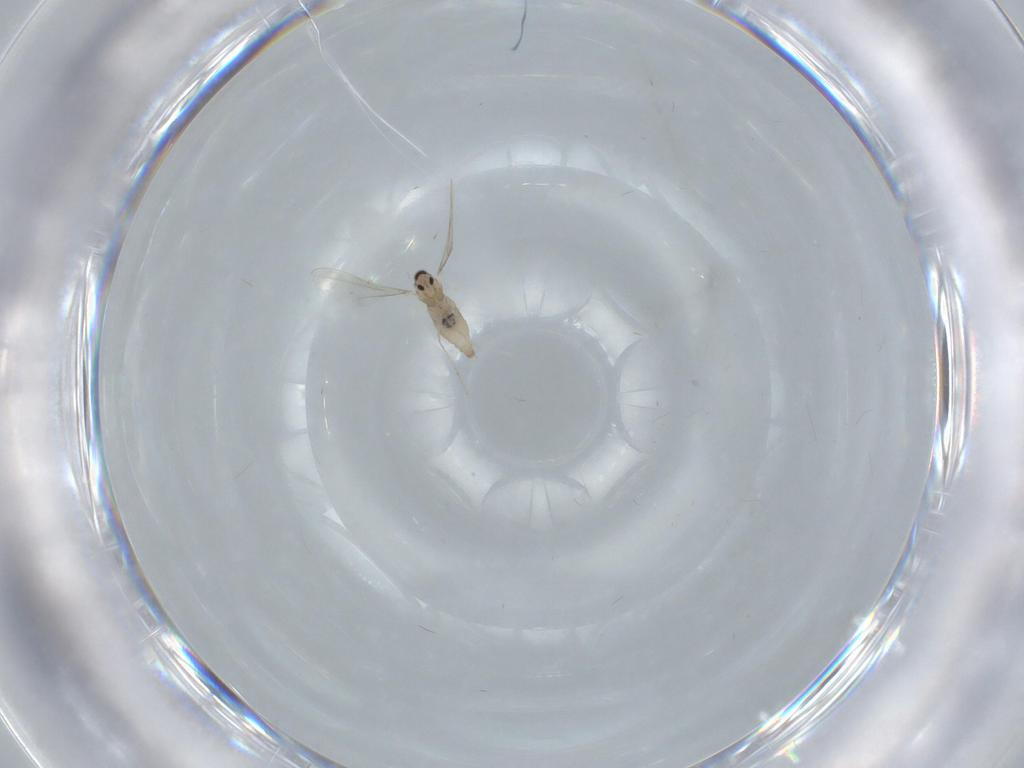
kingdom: Animalia
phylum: Arthropoda
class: Insecta
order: Diptera
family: Cecidomyiidae
